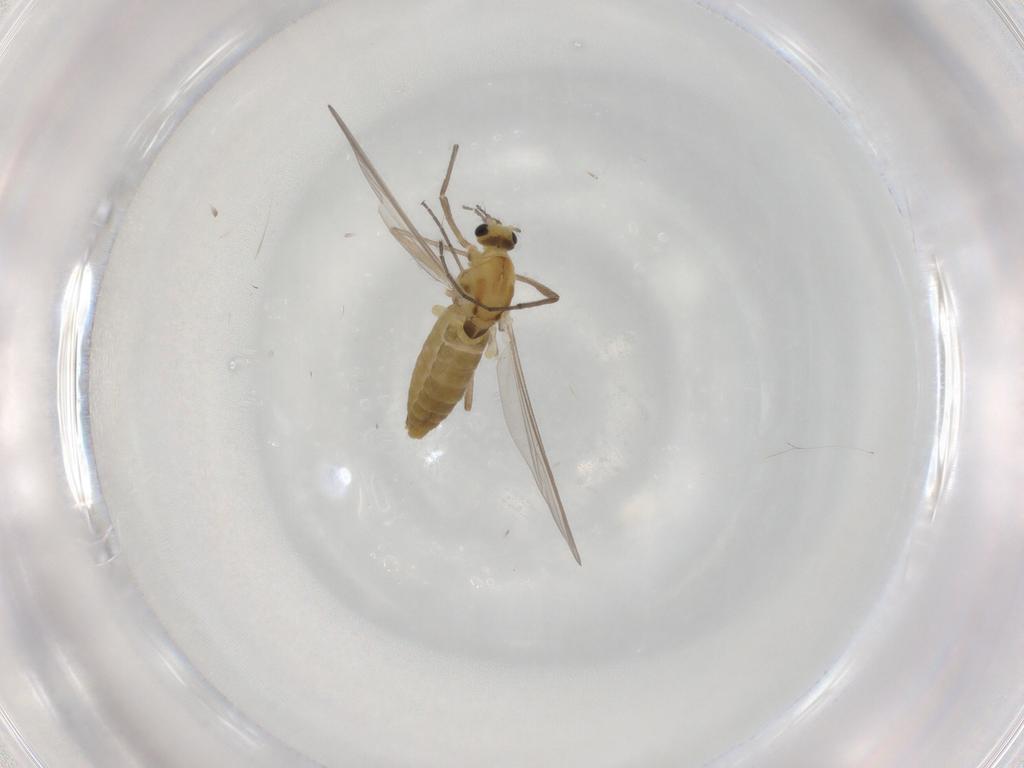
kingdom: Animalia
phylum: Arthropoda
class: Insecta
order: Diptera
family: Chironomidae
